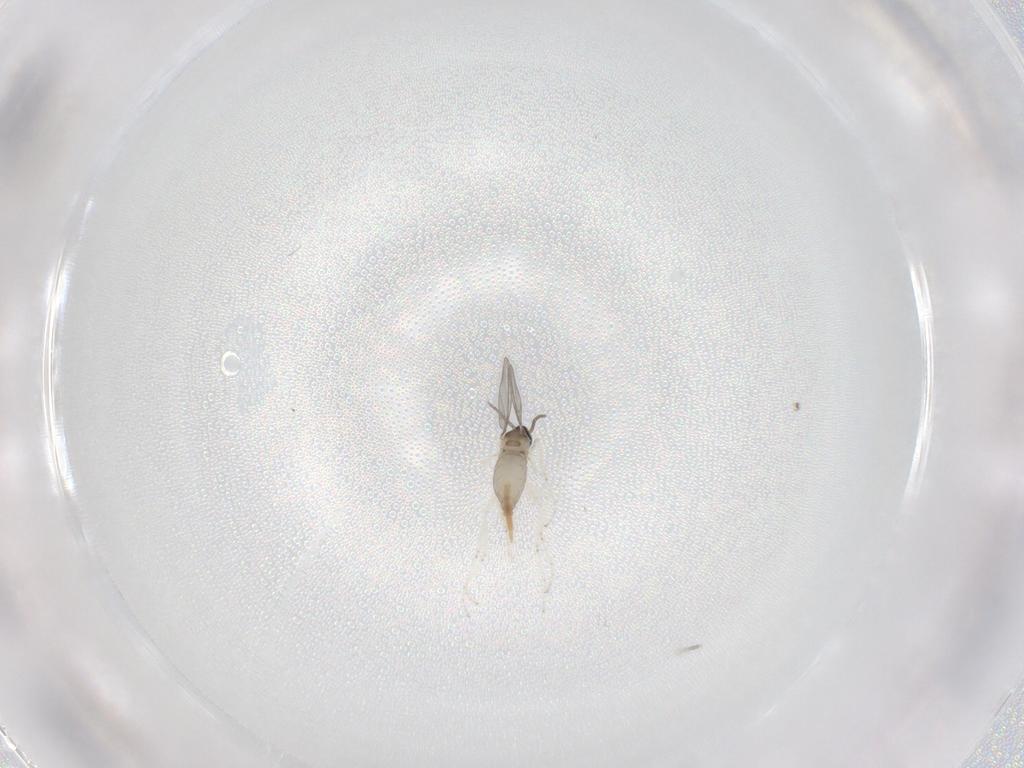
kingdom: Animalia
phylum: Arthropoda
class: Insecta
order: Diptera
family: Cecidomyiidae
